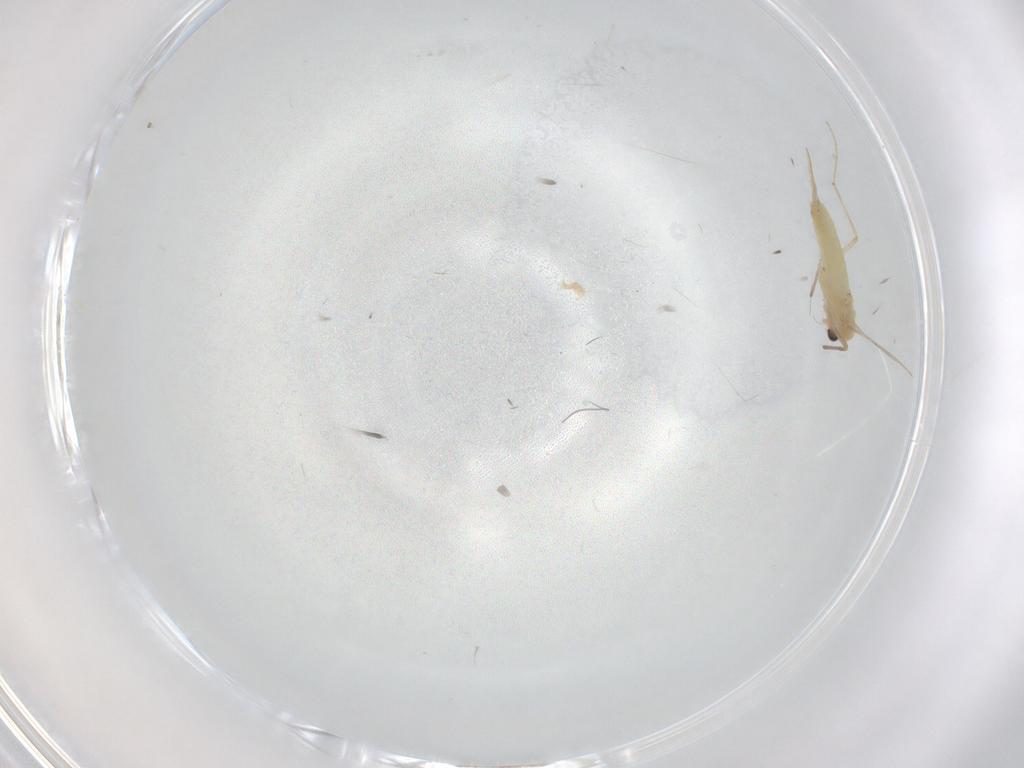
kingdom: Animalia
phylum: Arthropoda
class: Insecta
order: Diptera
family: Chironomidae
